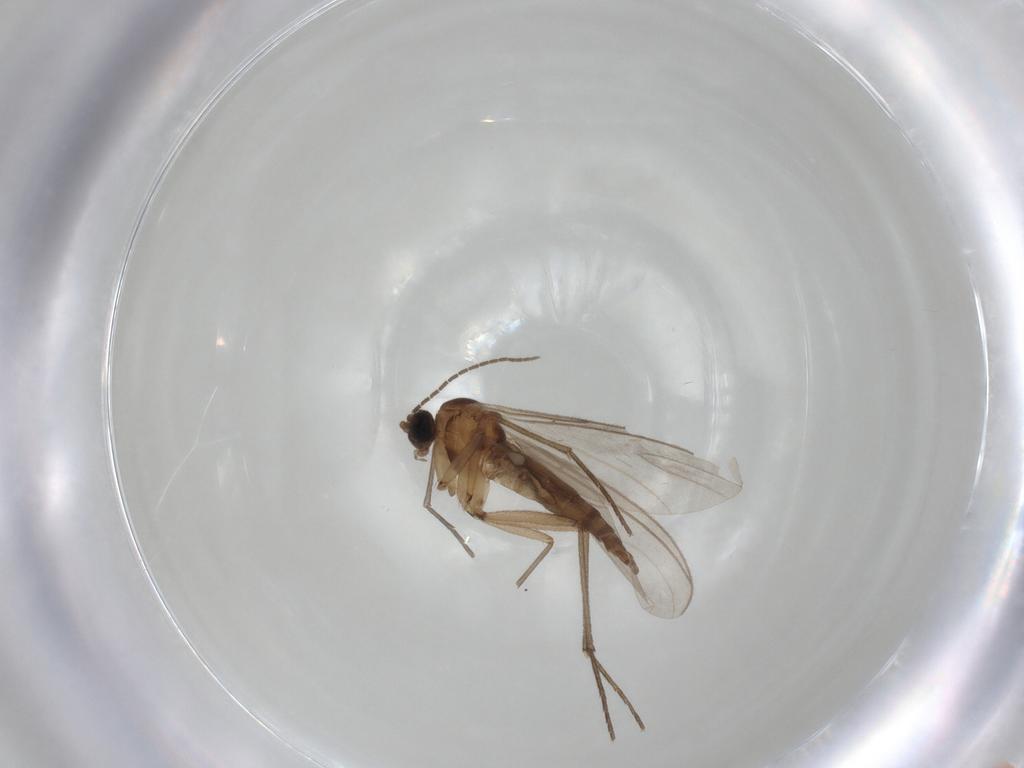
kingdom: Animalia
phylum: Arthropoda
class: Insecta
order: Diptera
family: Sciaridae
